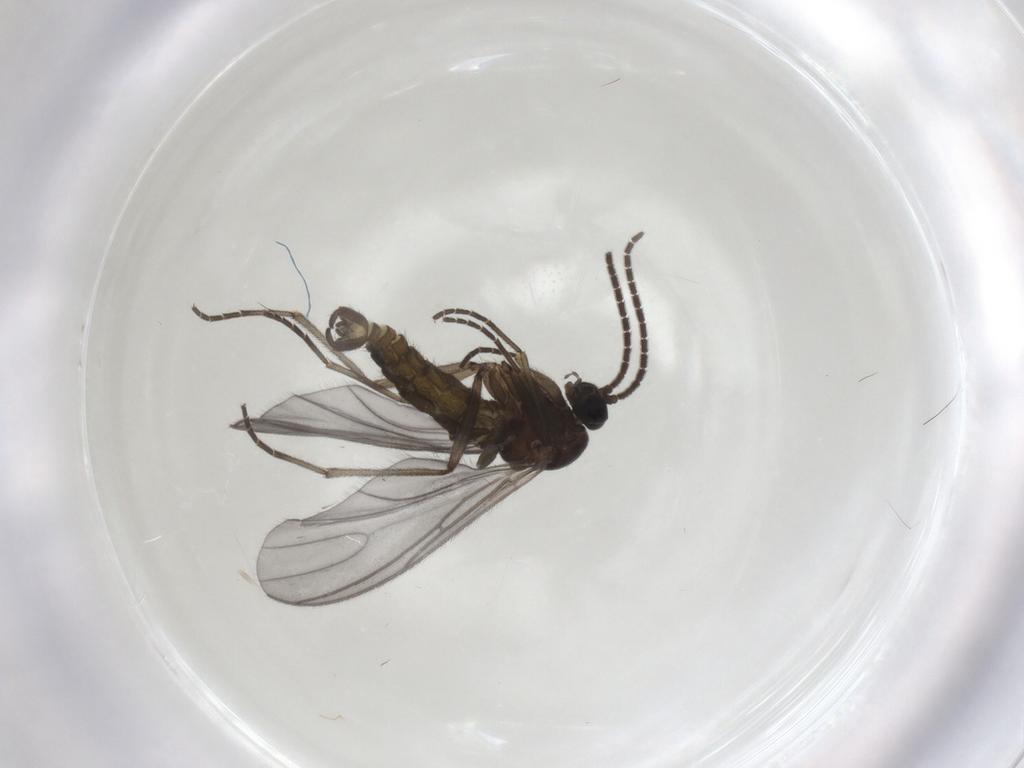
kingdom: Animalia
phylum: Arthropoda
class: Insecta
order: Diptera
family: Sciaridae
